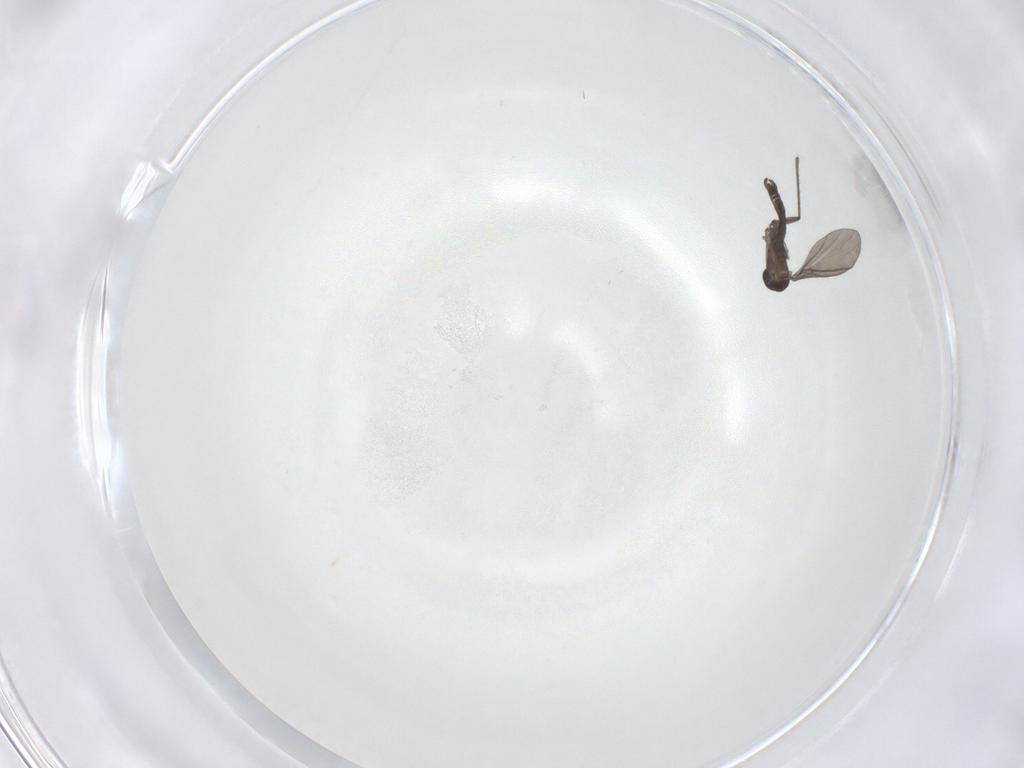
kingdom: Animalia
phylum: Arthropoda
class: Insecta
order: Diptera
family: Sciaridae
